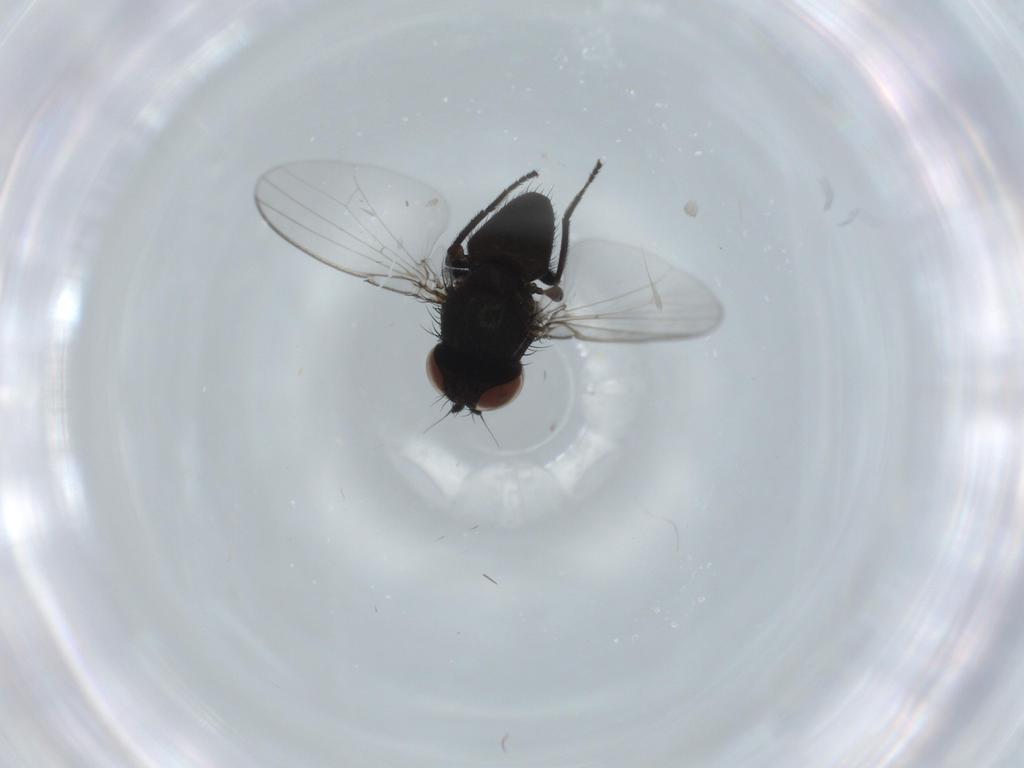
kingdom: Animalia
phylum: Arthropoda
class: Insecta
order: Diptera
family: Milichiidae
